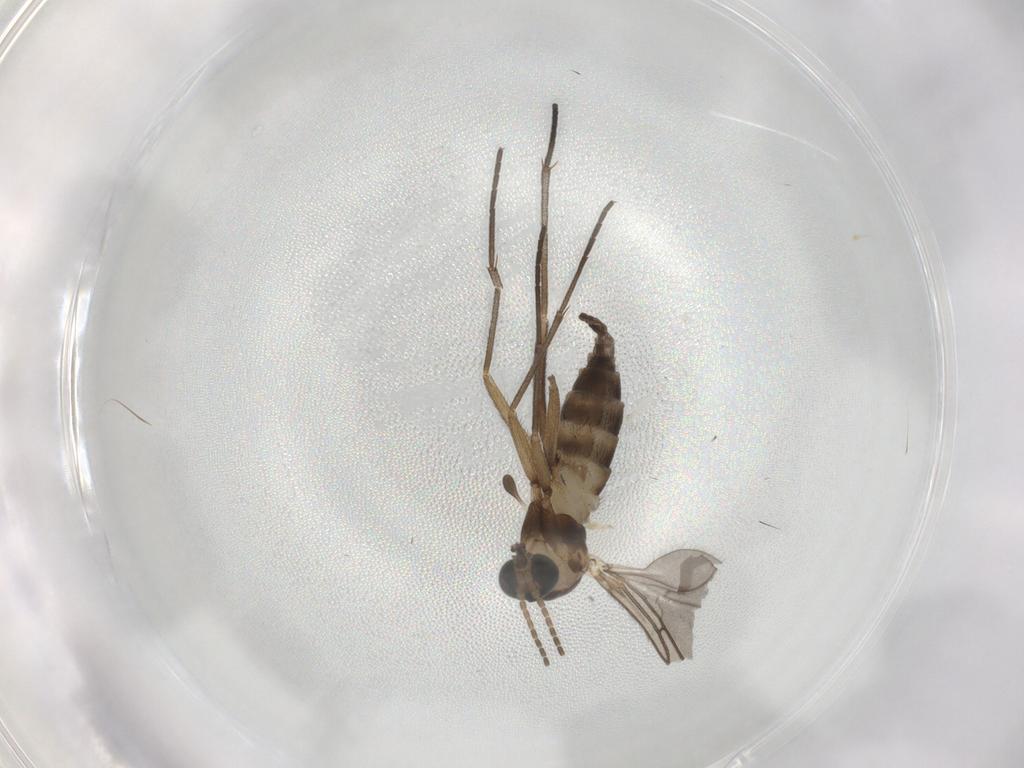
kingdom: Animalia
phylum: Arthropoda
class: Insecta
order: Diptera
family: Sciaridae
